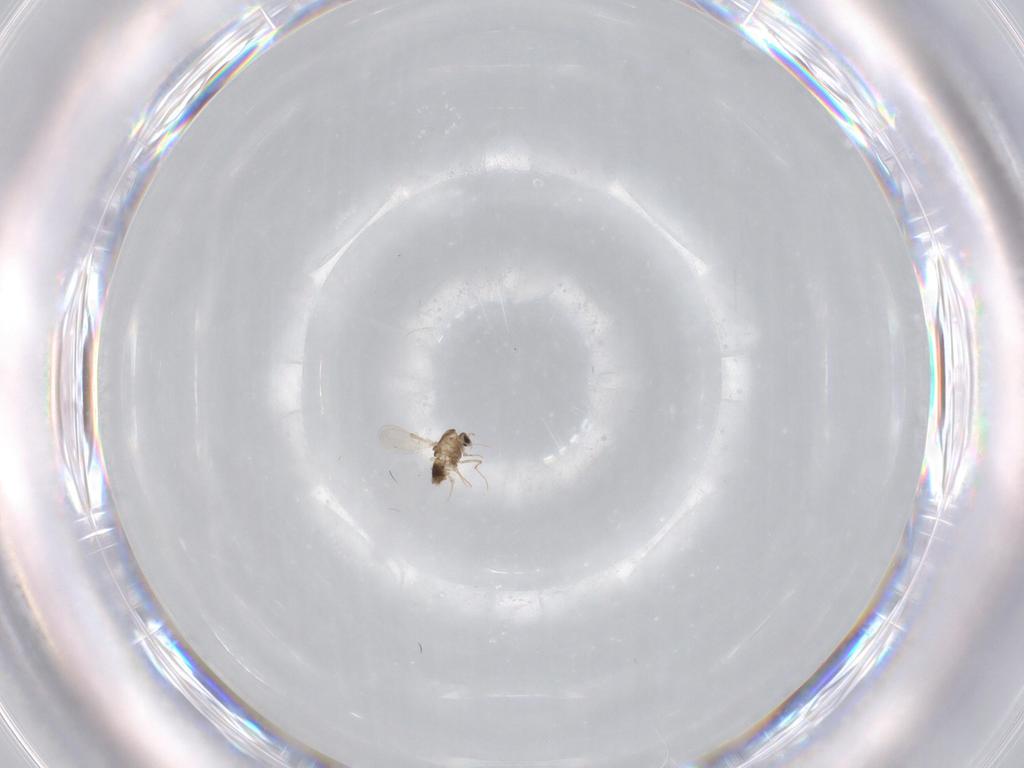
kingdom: Animalia
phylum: Arthropoda
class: Insecta
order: Diptera
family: Chironomidae
